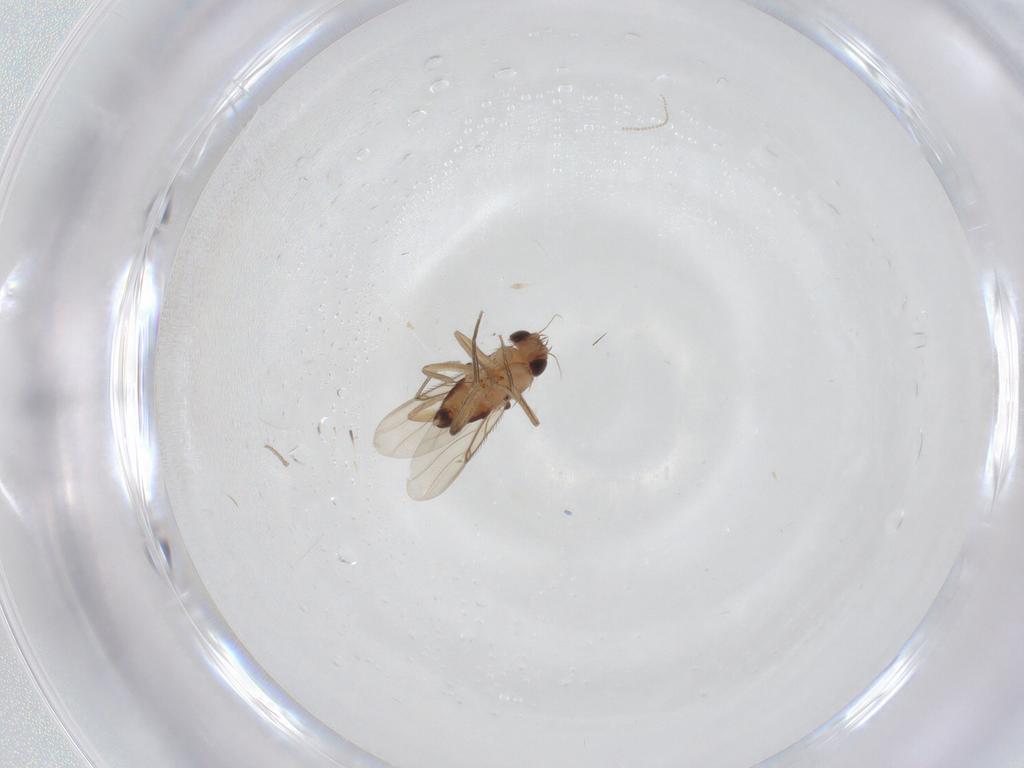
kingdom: Animalia
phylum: Arthropoda
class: Insecta
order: Diptera
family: Phoridae
